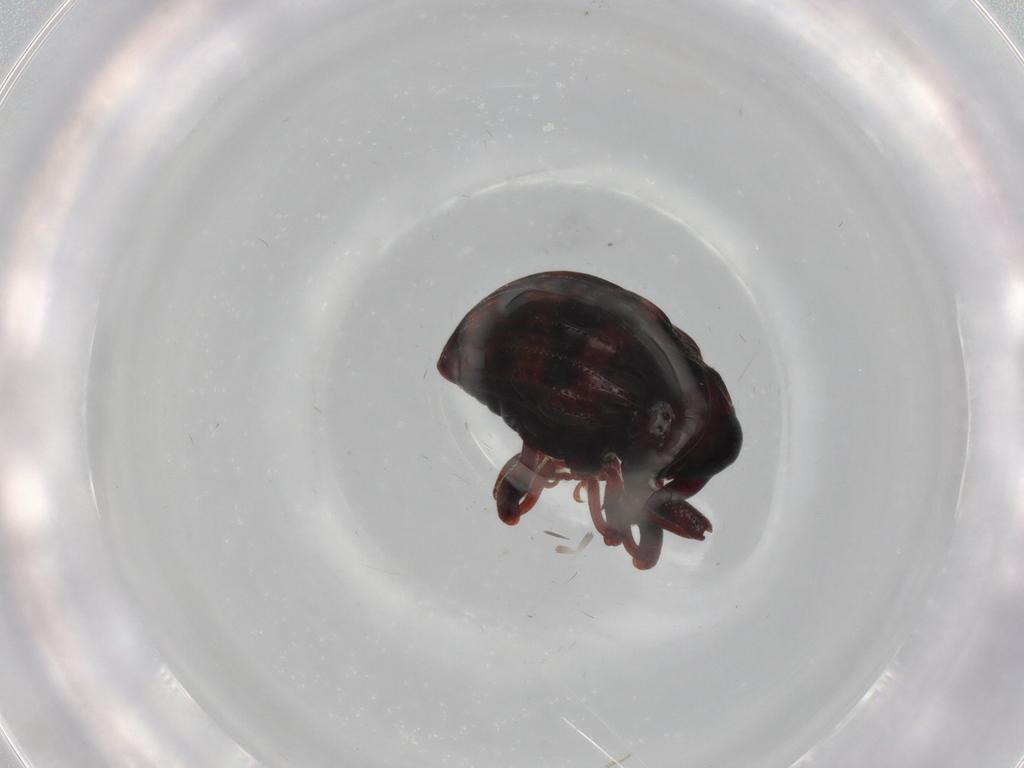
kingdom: Animalia
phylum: Arthropoda
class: Insecta
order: Coleoptera
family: Curculionidae
